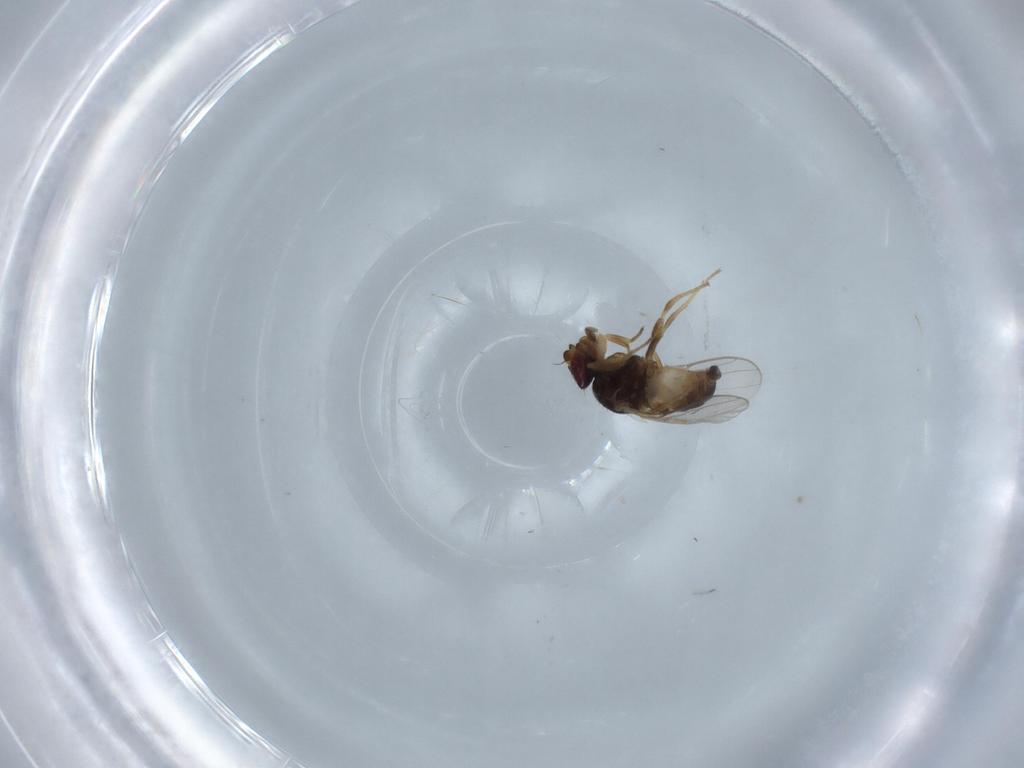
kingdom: Animalia
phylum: Arthropoda
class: Insecta
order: Diptera
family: Chloropidae
